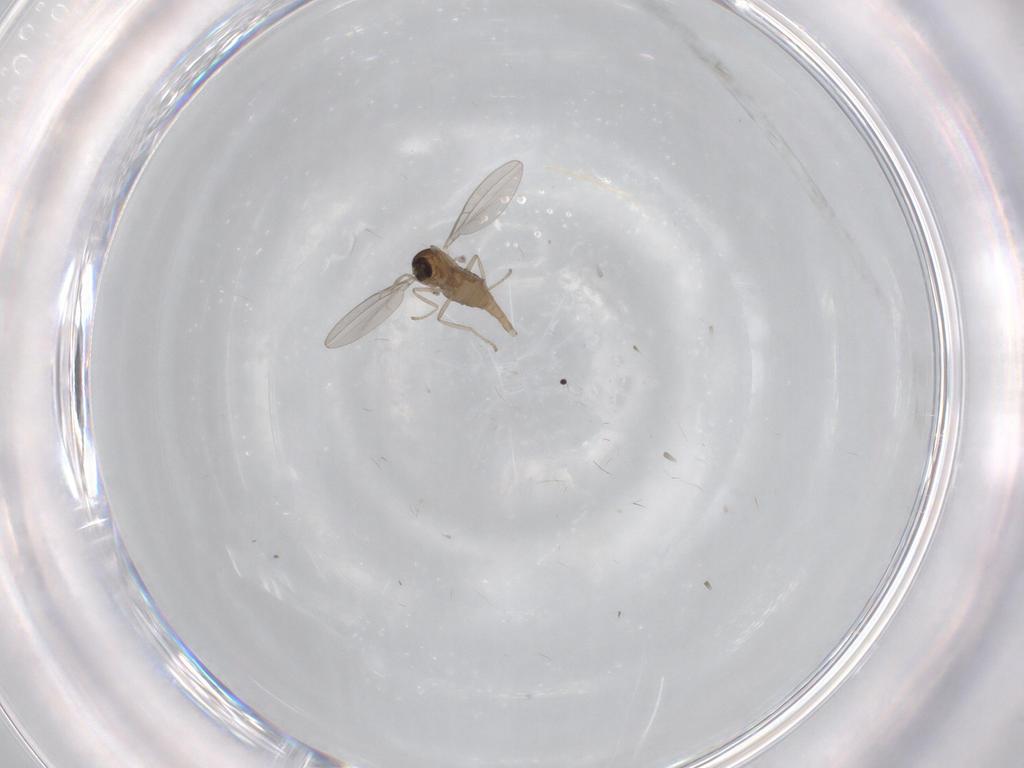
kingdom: Animalia
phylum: Arthropoda
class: Insecta
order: Diptera
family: Cecidomyiidae
